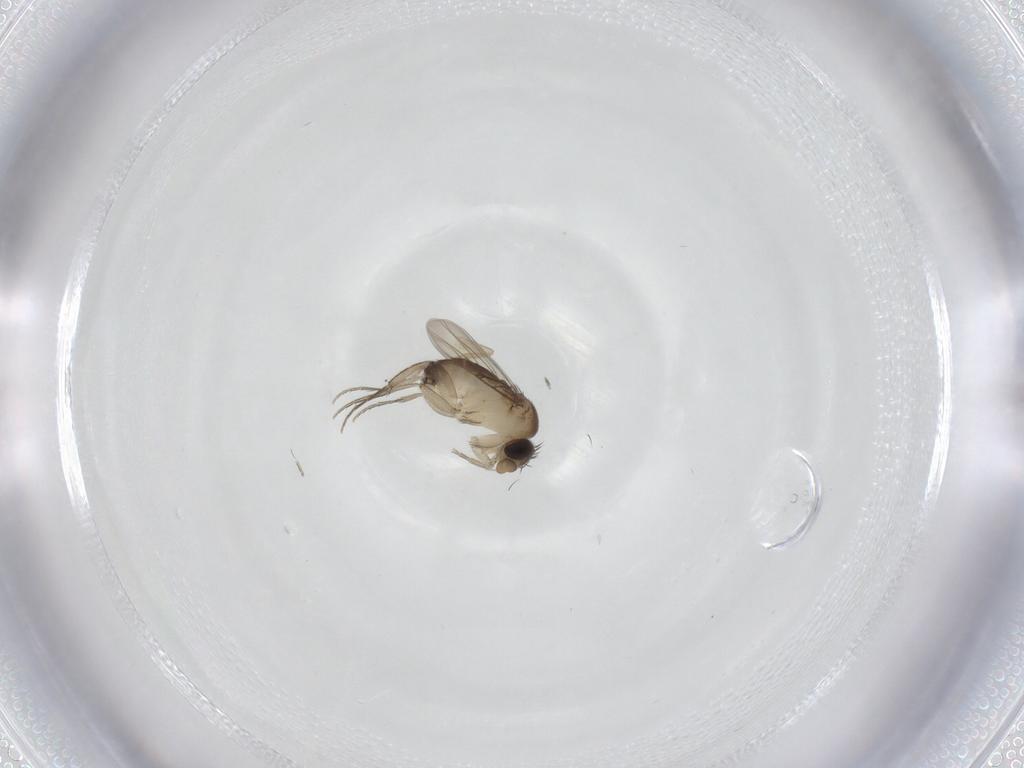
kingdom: Animalia
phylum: Arthropoda
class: Insecta
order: Diptera
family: Phoridae
